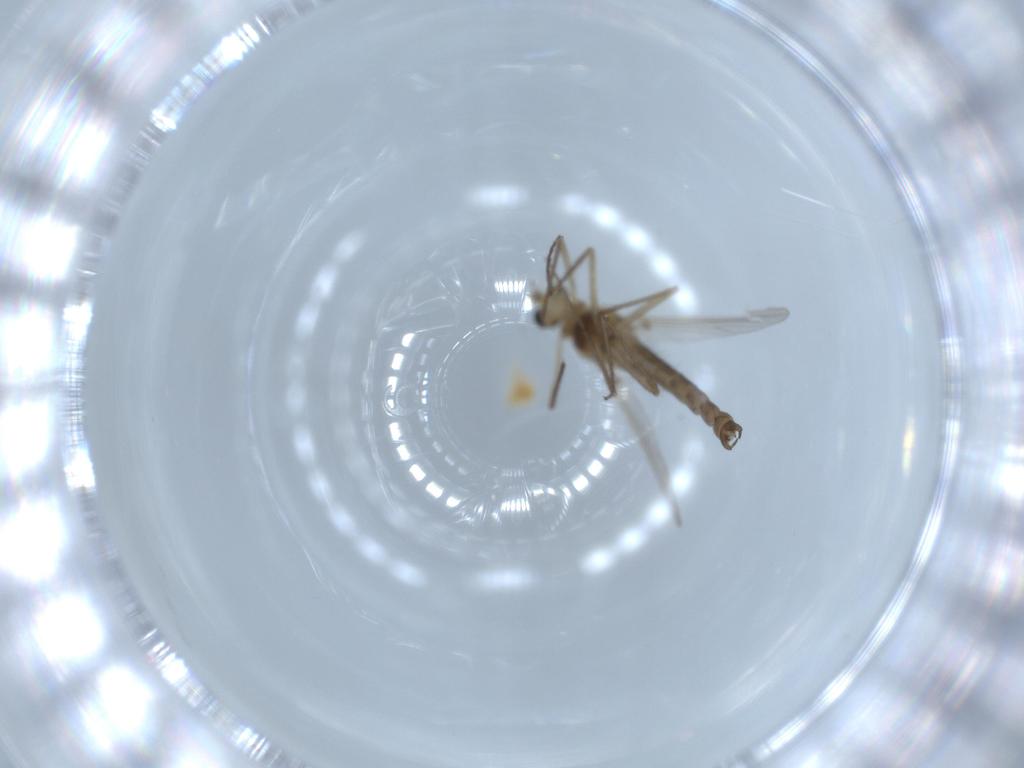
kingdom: Animalia
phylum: Arthropoda
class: Insecta
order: Diptera
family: Chironomidae
